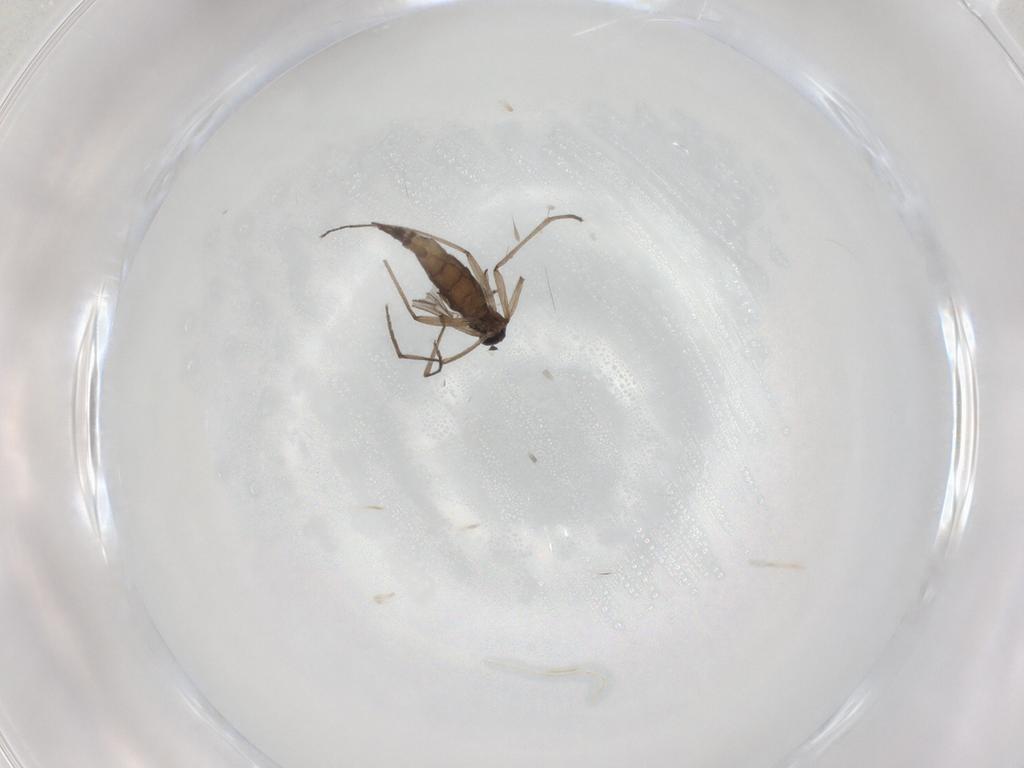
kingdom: Animalia
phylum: Arthropoda
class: Insecta
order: Diptera
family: Sciaridae
